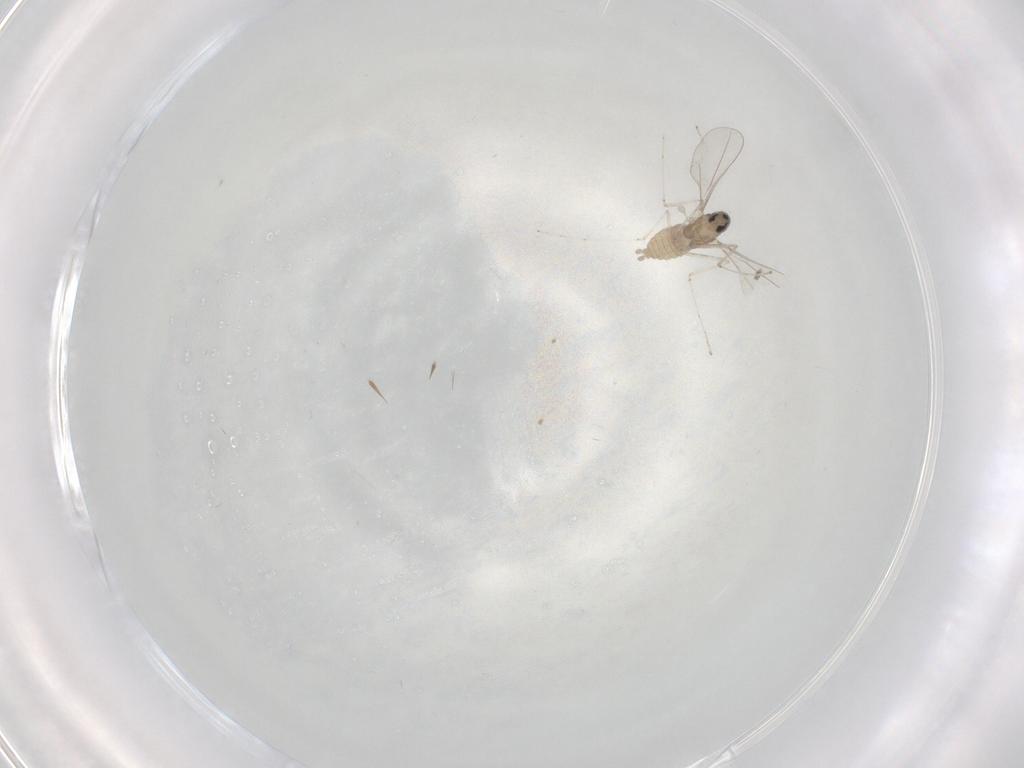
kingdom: Animalia
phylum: Arthropoda
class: Insecta
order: Diptera
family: Cecidomyiidae
